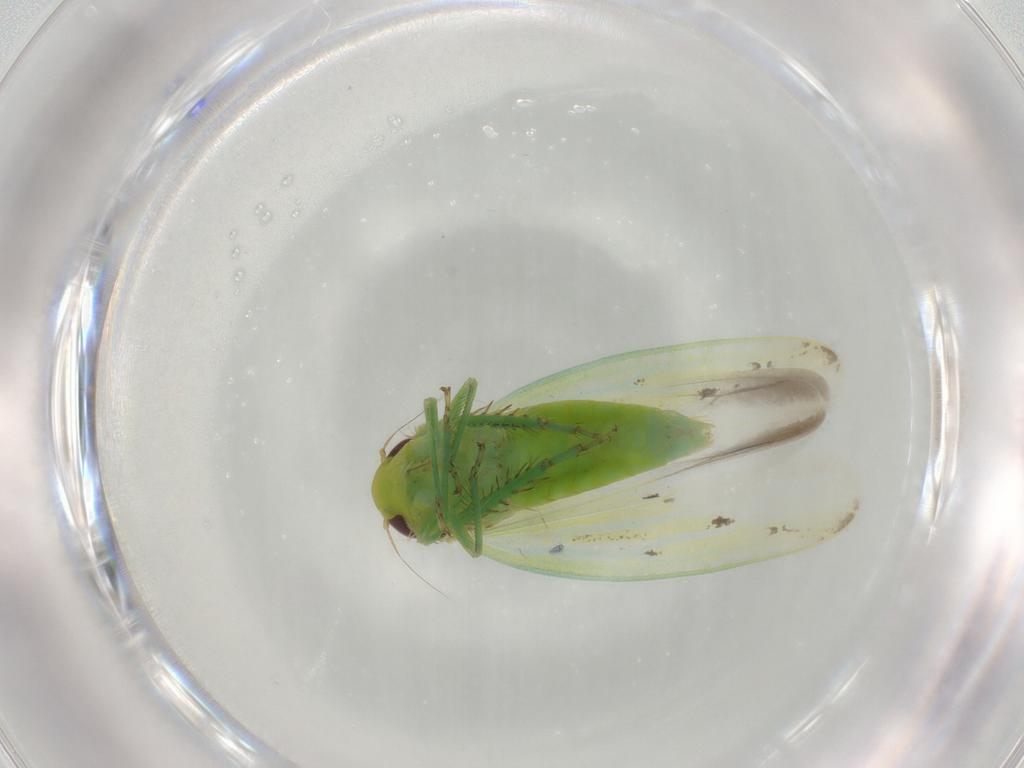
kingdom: Animalia
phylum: Arthropoda
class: Insecta
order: Hemiptera
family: Cicadellidae
